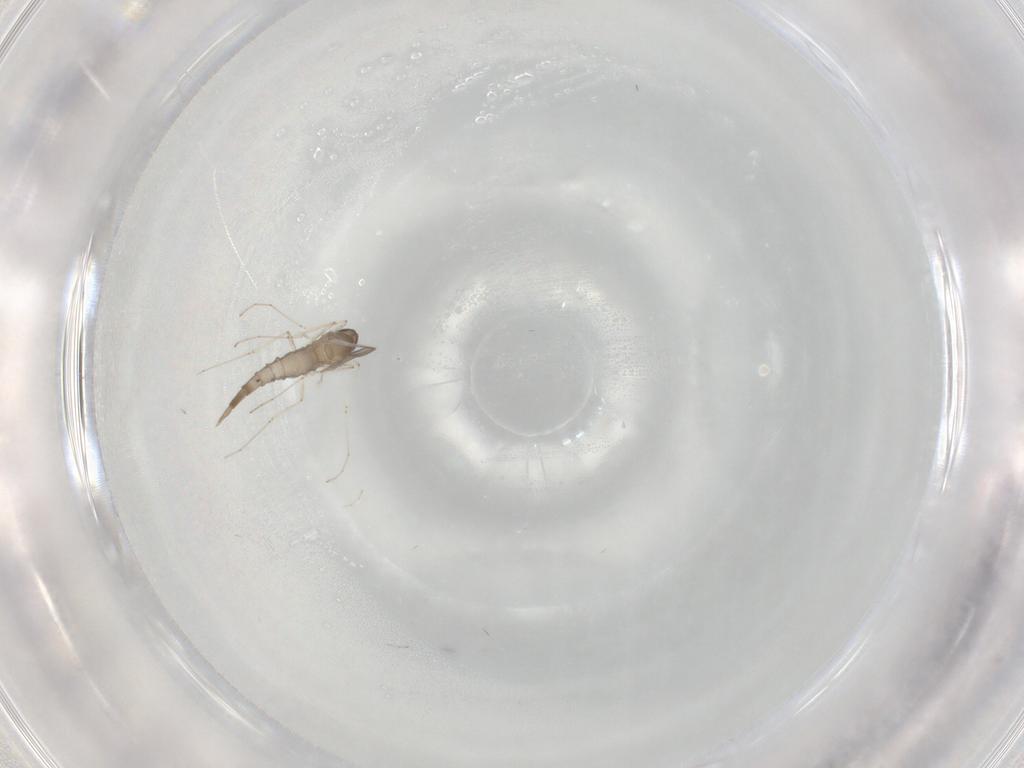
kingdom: Animalia
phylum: Arthropoda
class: Insecta
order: Diptera
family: Cecidomyiidae
